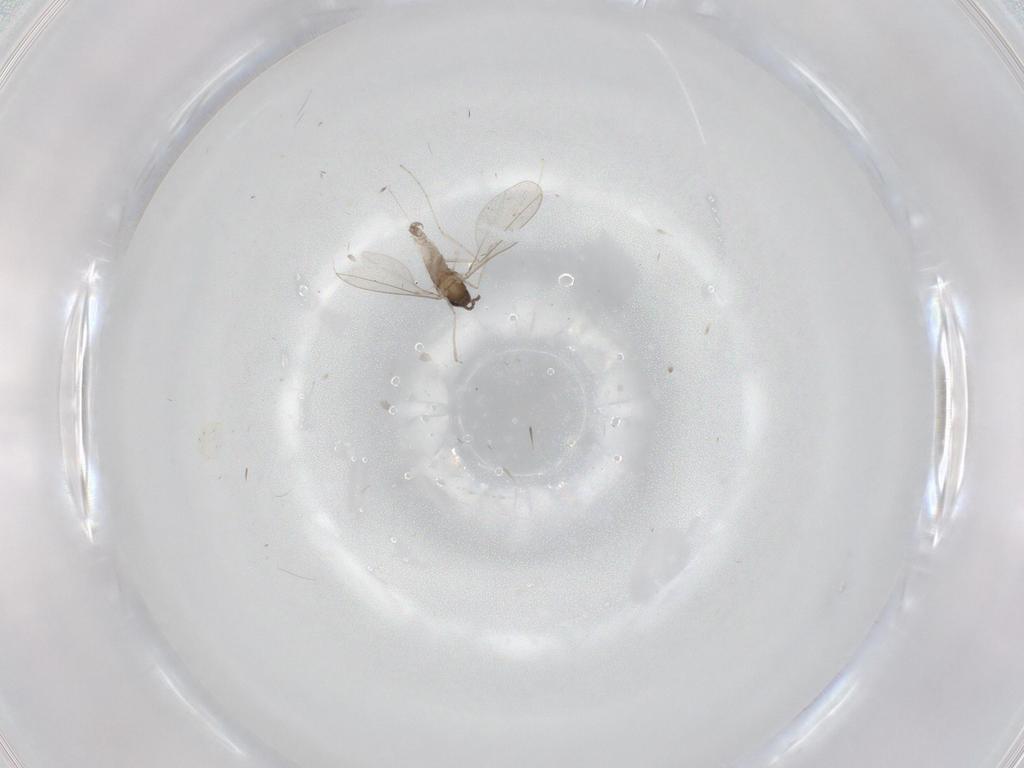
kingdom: Animalia
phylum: Arthropoda
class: Insecta
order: Diptera
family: Cecidomyiidae
